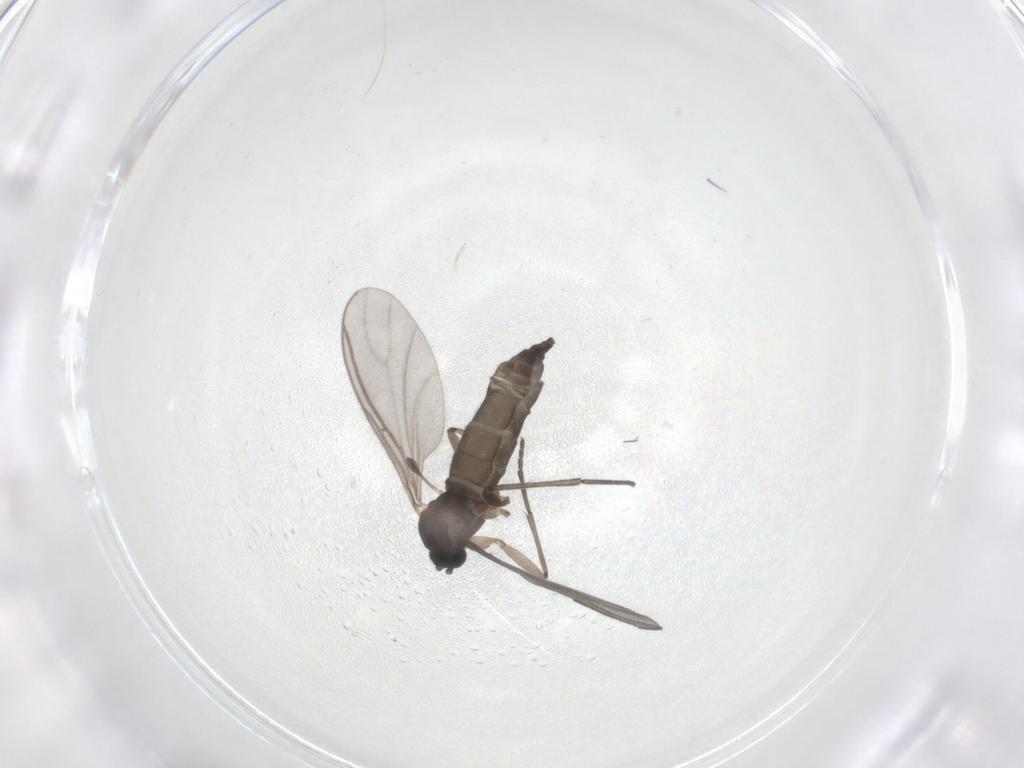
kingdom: Animalia
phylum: Arthropoda
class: Insecta
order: Diptera
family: Sciaridae
